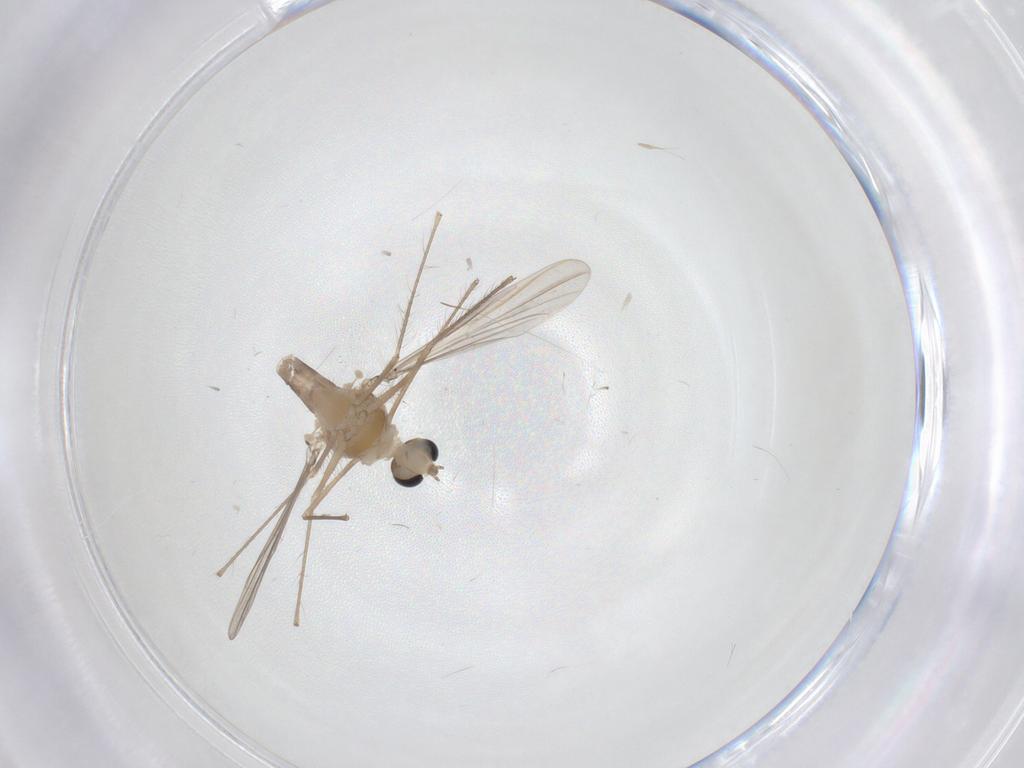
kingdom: Animalia
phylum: Arthropoda
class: Insecta
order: Diptera
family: Chironomidae
